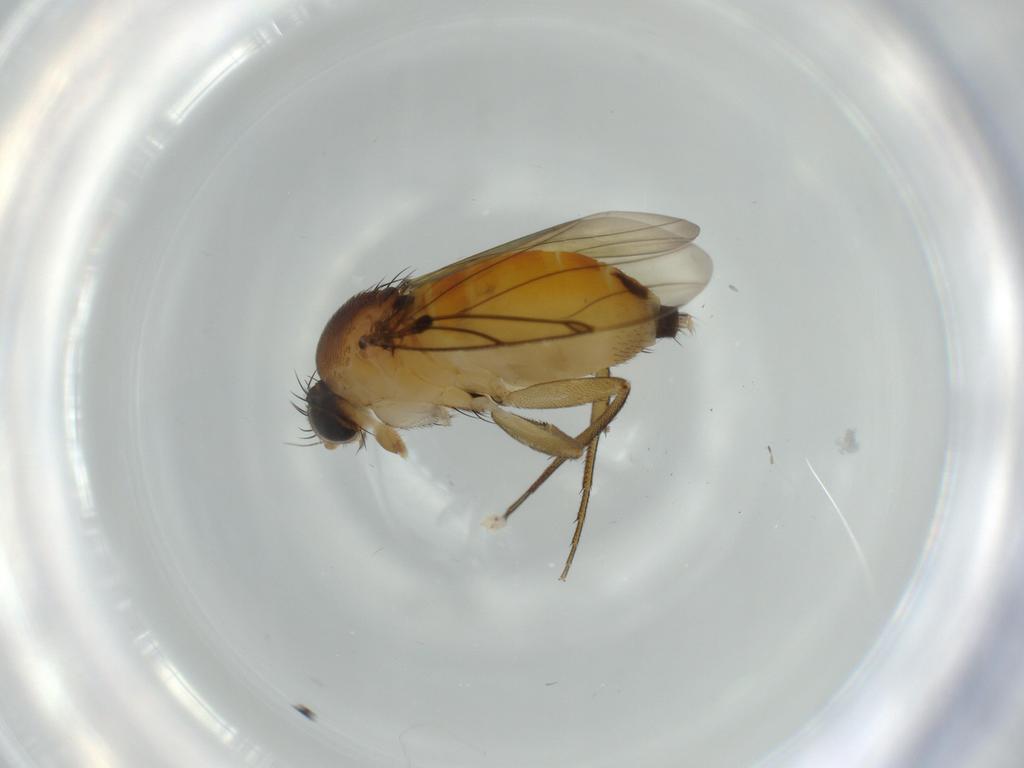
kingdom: Animalia
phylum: Arthropoda
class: Insecta
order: Diptera
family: Phoridae
